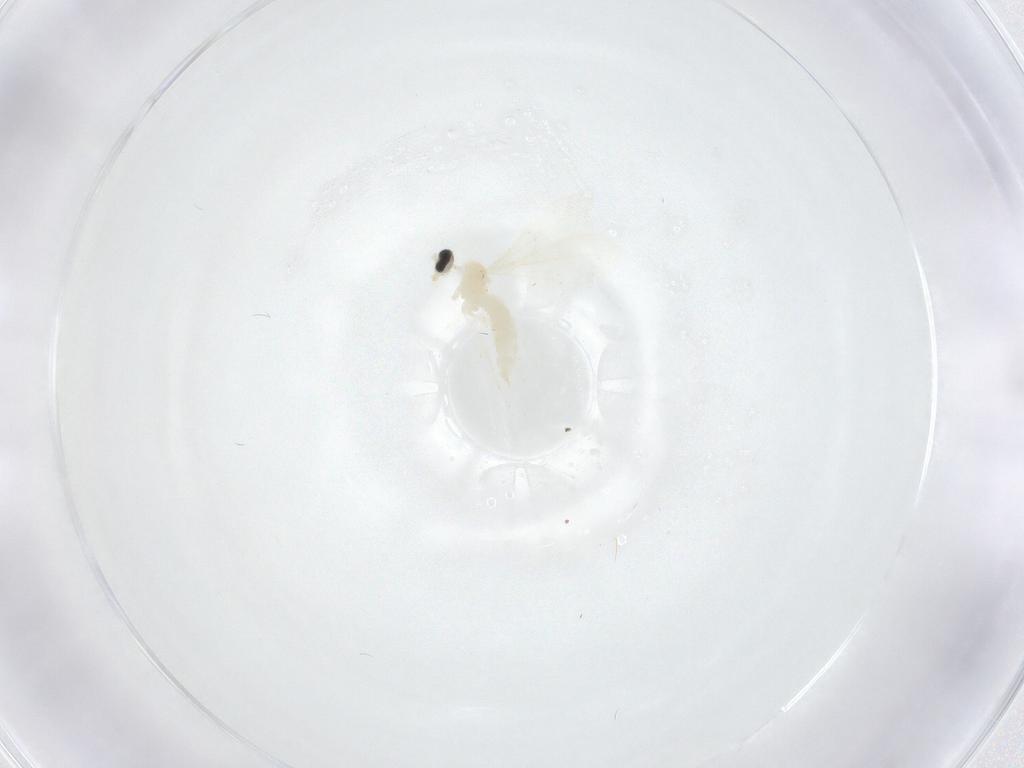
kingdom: Animalia
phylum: Arthropoda
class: Insecta
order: Diptera
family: Cecidomyiidae
